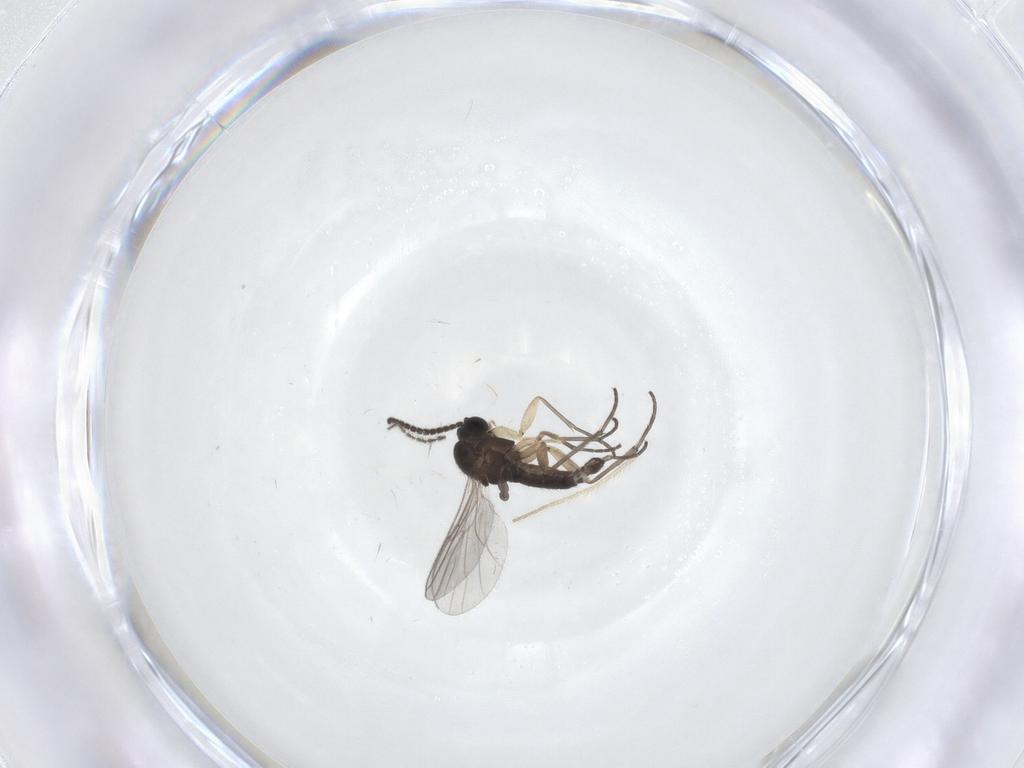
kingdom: Animalia
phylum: Arthropoda
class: Insecta
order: Diptera
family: Sciaridae
